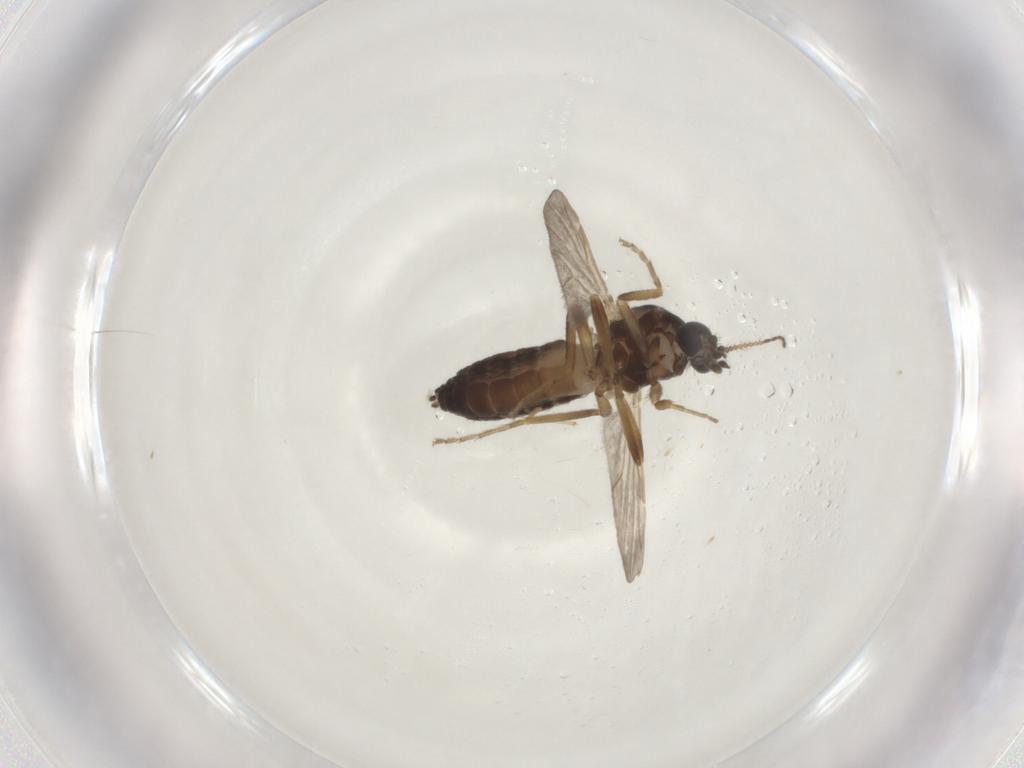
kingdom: Animalia
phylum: Arthropoda
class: Insecta
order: Diptera
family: Ceratopogonidae
